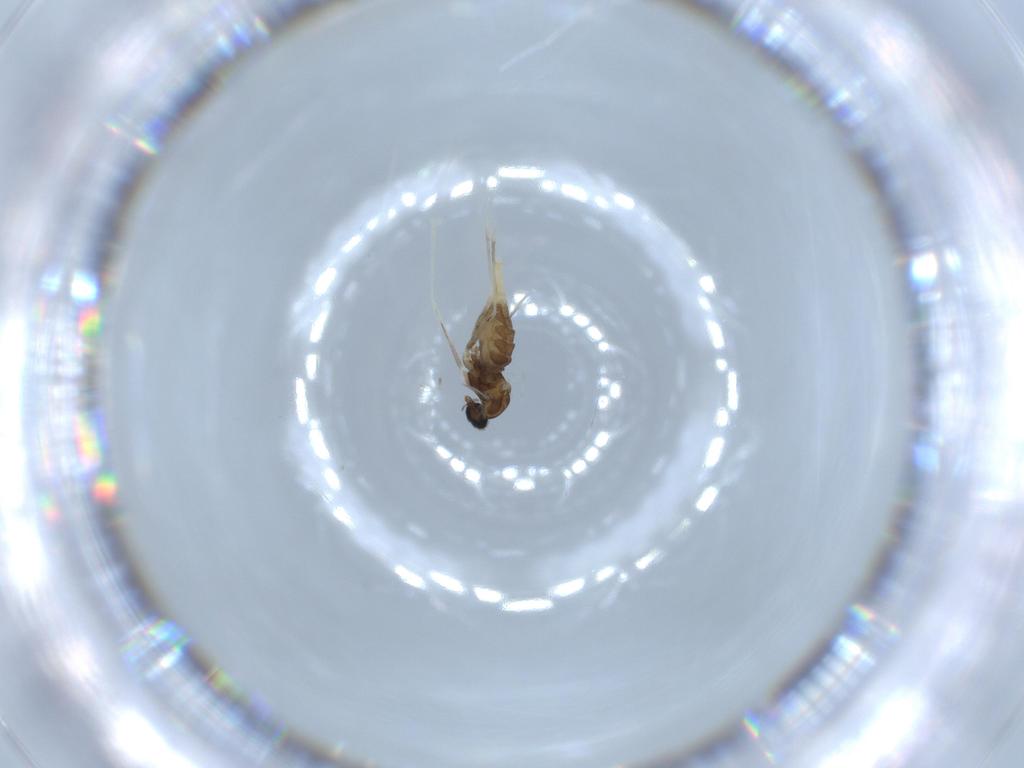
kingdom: Animalia
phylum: Arthropoda
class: Insecta
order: Diptera
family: Cecidomyiidae
